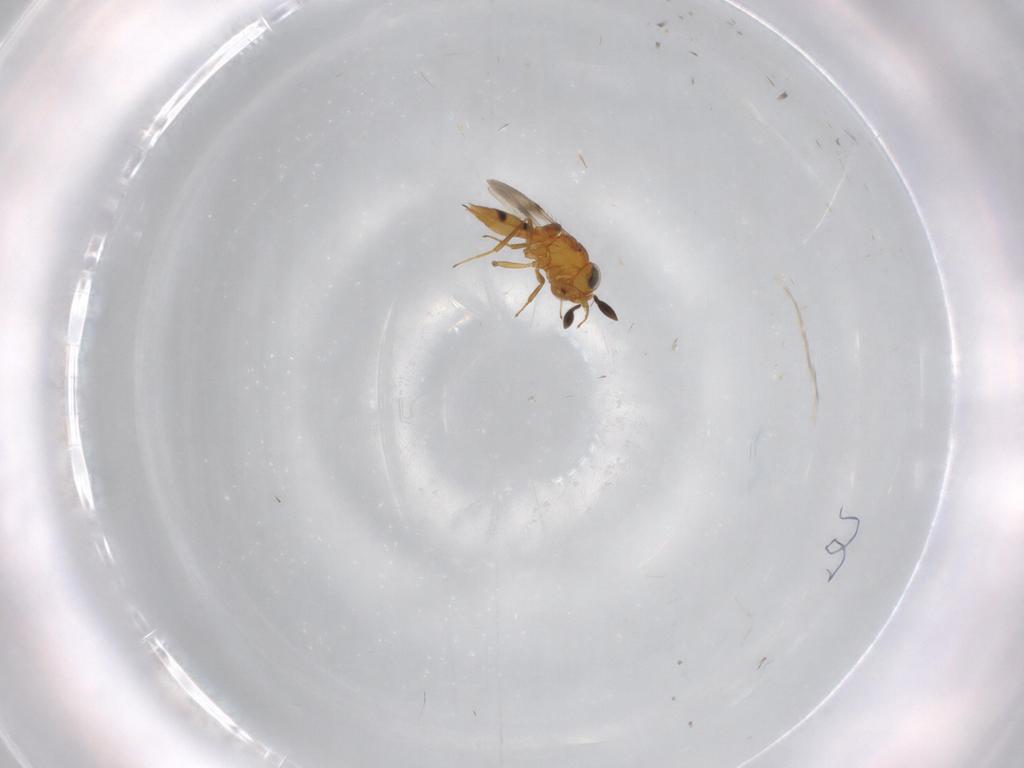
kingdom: Animalia
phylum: Arthropoda
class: Insecta
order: Hymenoptera
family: Scelionidae
